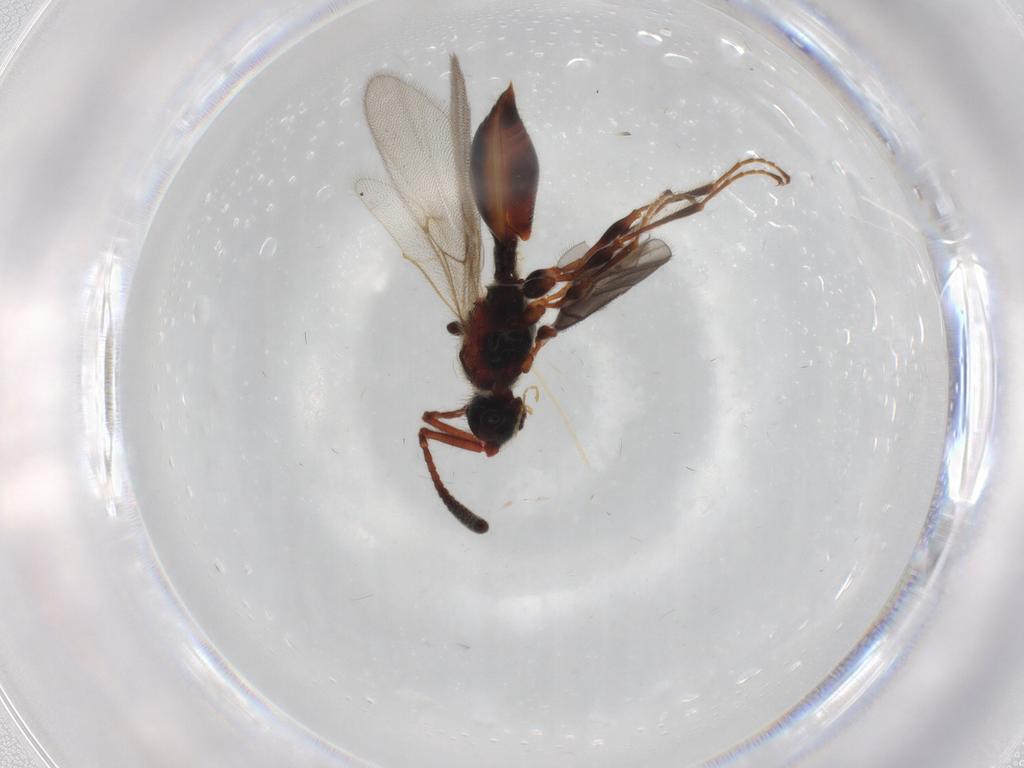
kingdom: Animalia
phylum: Arthropoda
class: Insecta
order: Hymenoptera
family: Diapriidae
